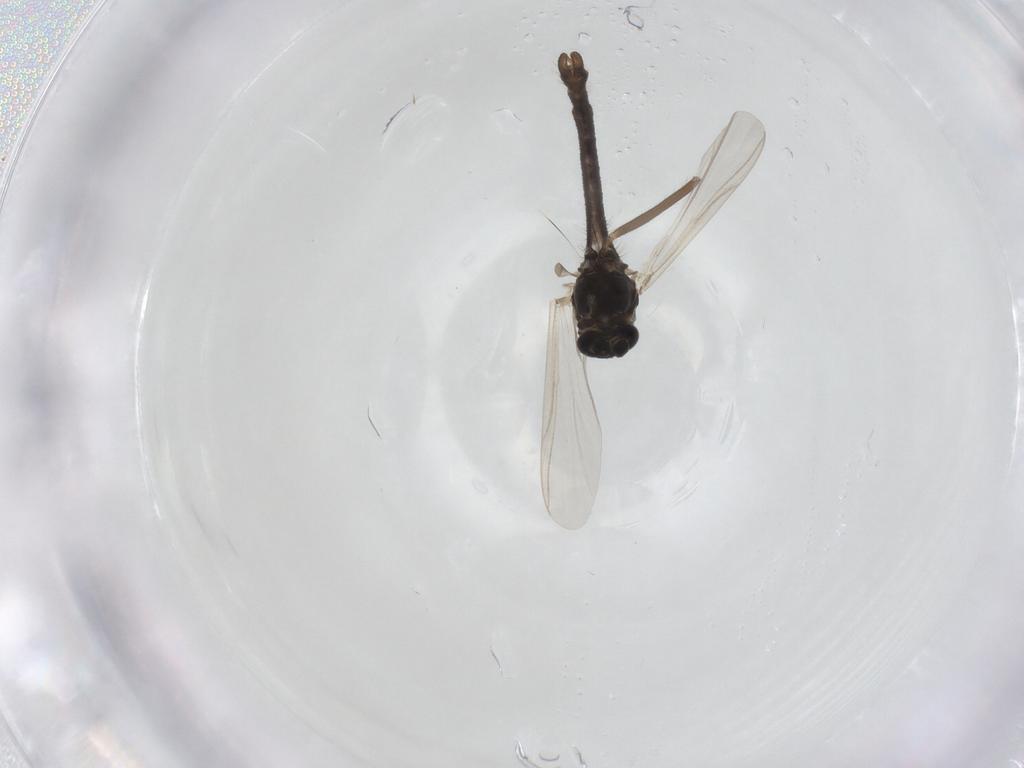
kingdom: Animalia
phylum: Arthropoda
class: Insecta
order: Diptera
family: Chironomidae
